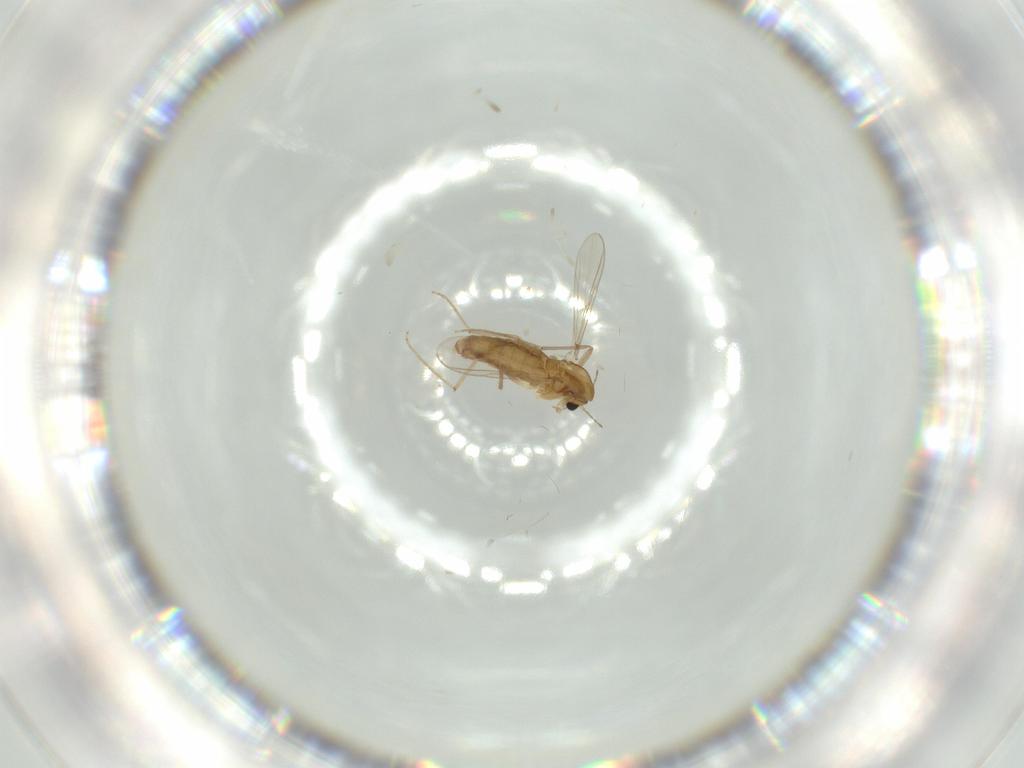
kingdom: Animalia
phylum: Arthropoda
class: Insecta
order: Diptera
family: Chironomidae
